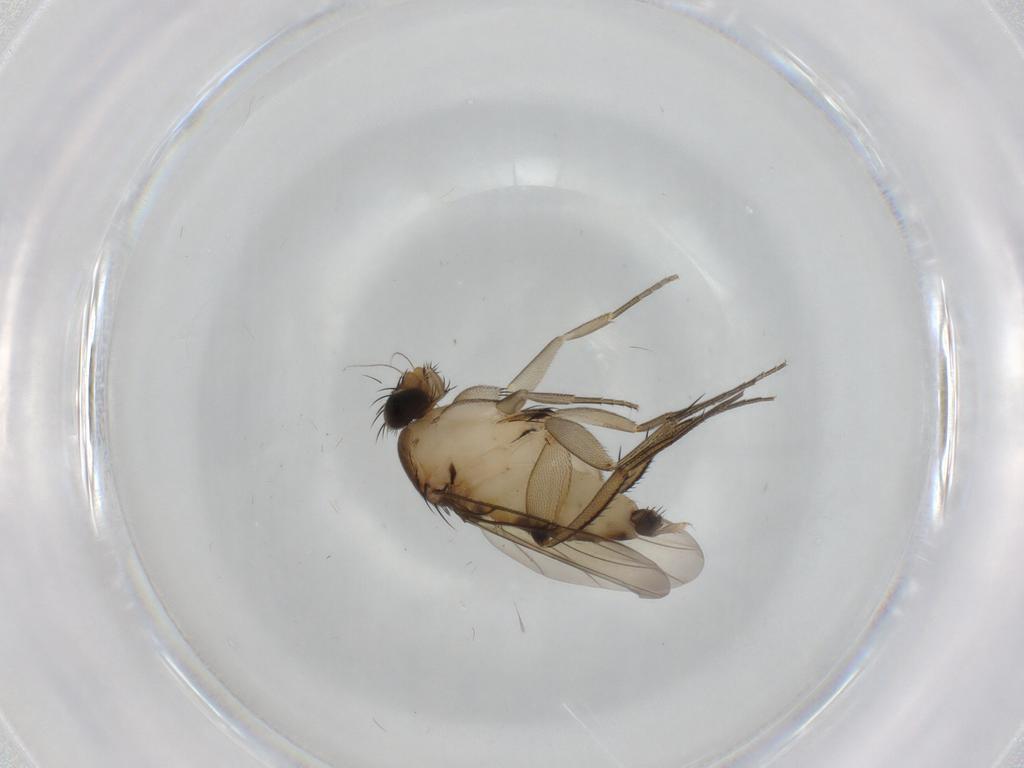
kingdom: Animalia
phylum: Arthropoda
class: Insecta
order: Diptera
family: Phoridae
